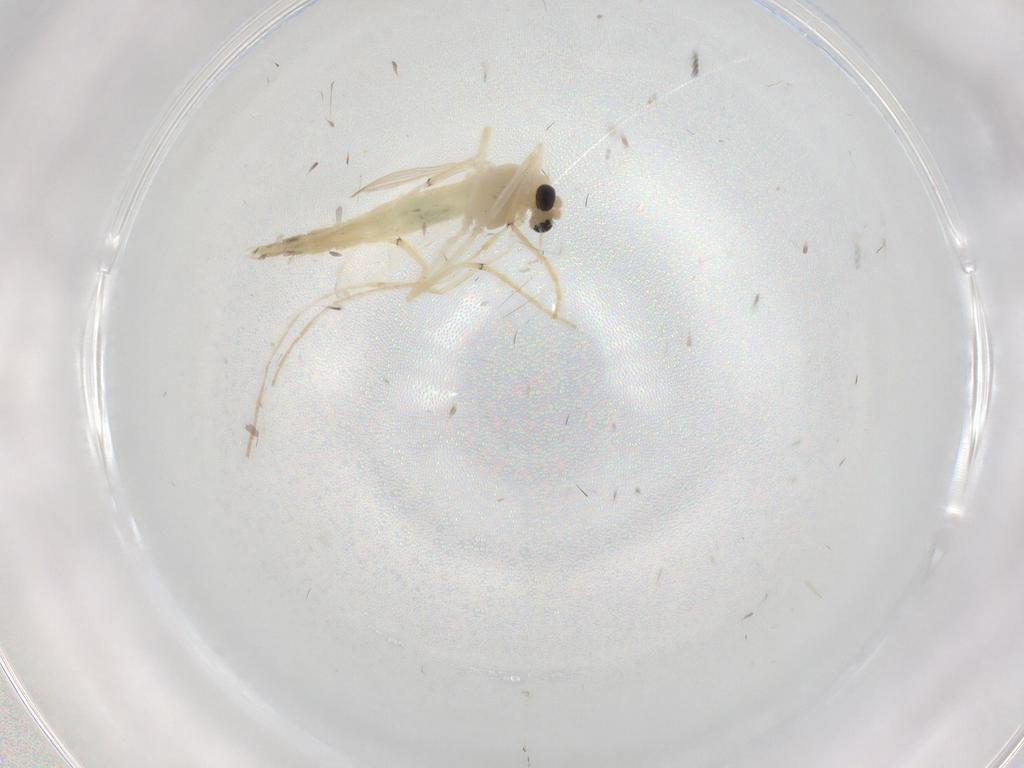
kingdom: Animalia
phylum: Arthropoda
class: Insecta
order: Diptera
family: Chironomidae
